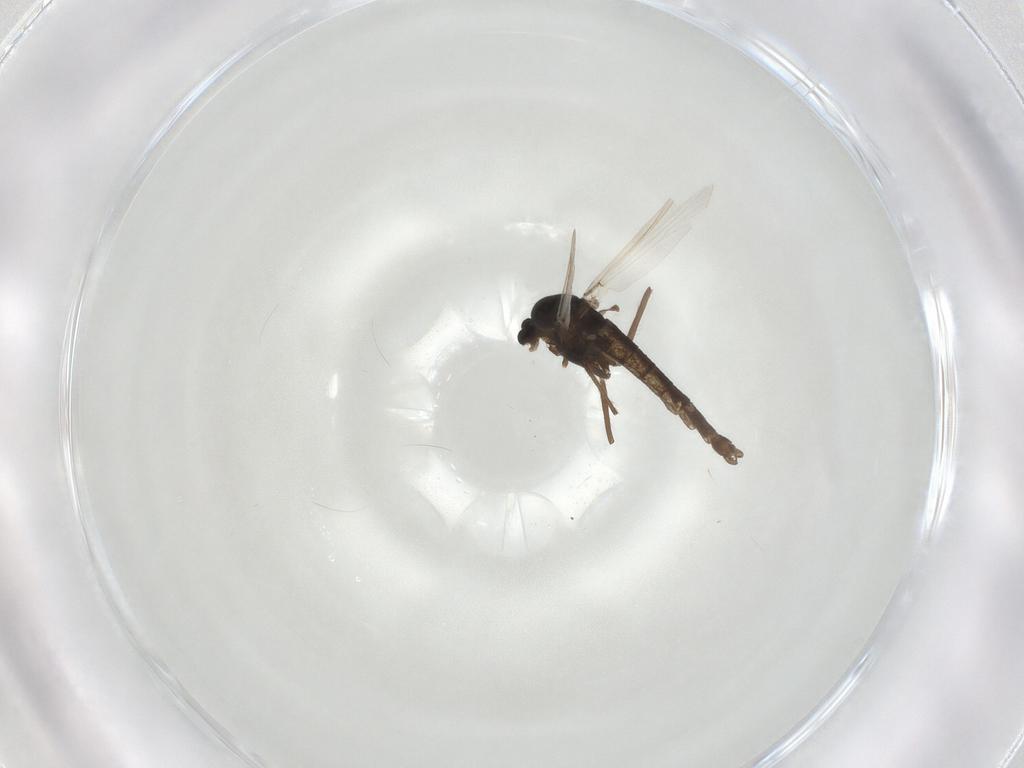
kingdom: Animalia
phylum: Arthropoda
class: Insecta
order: Diptera
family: Chironomidae
